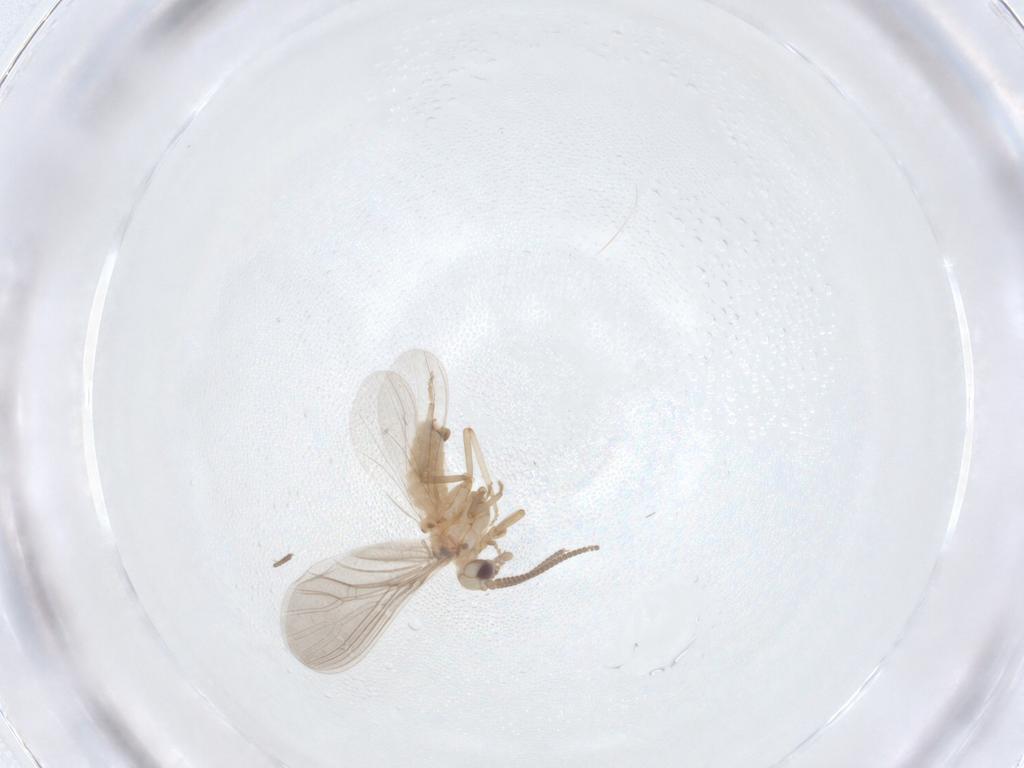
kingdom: Animalia
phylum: Arthropoda
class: Insecta
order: Neuroptera
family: Coniopterygidae
